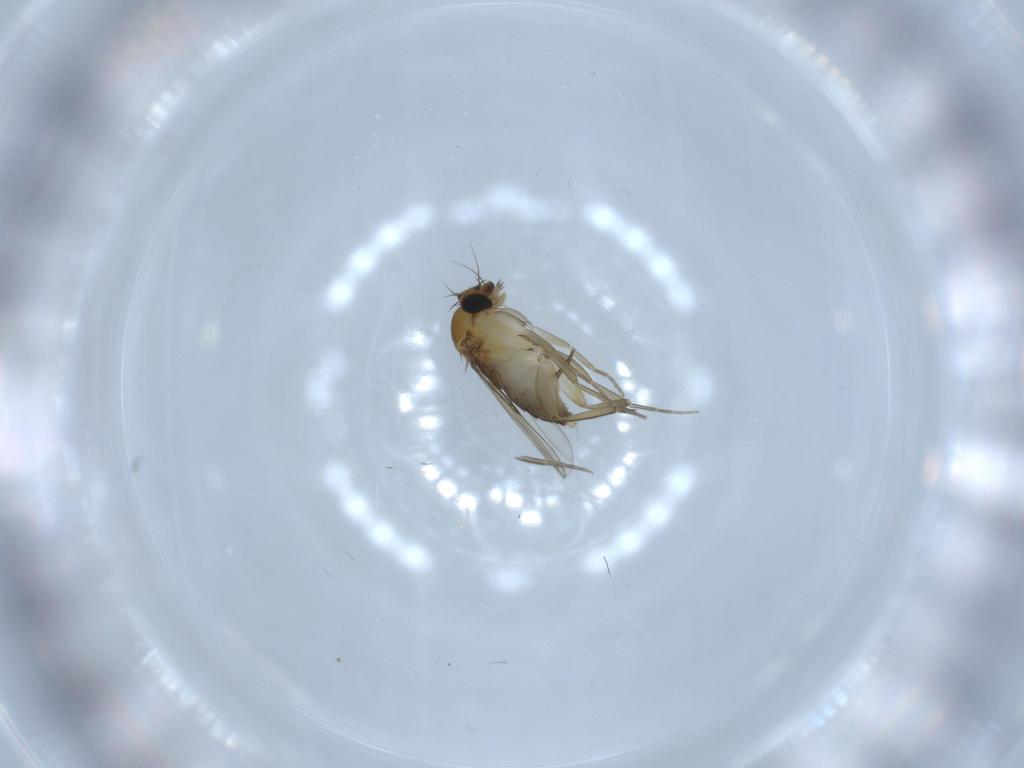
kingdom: Animalia
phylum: Arthropoda
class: Insecta
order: Diptera
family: Phoridae
